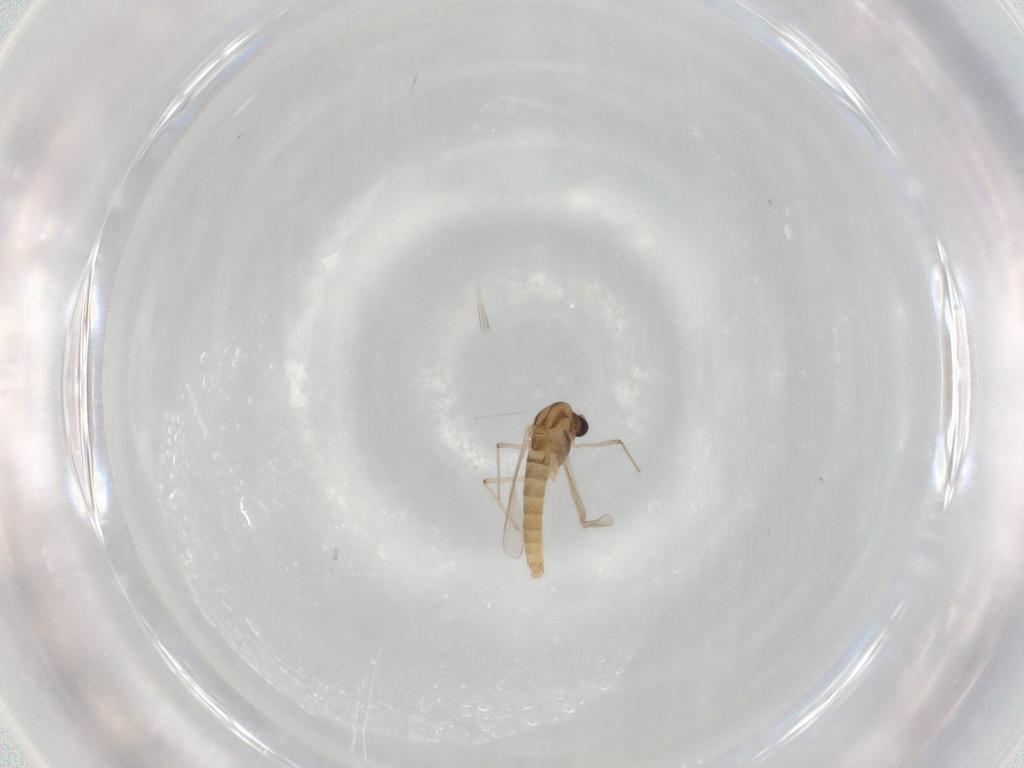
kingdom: Animalia
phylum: Arthropoda
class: Insecta
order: Diptera
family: Chironomidae
